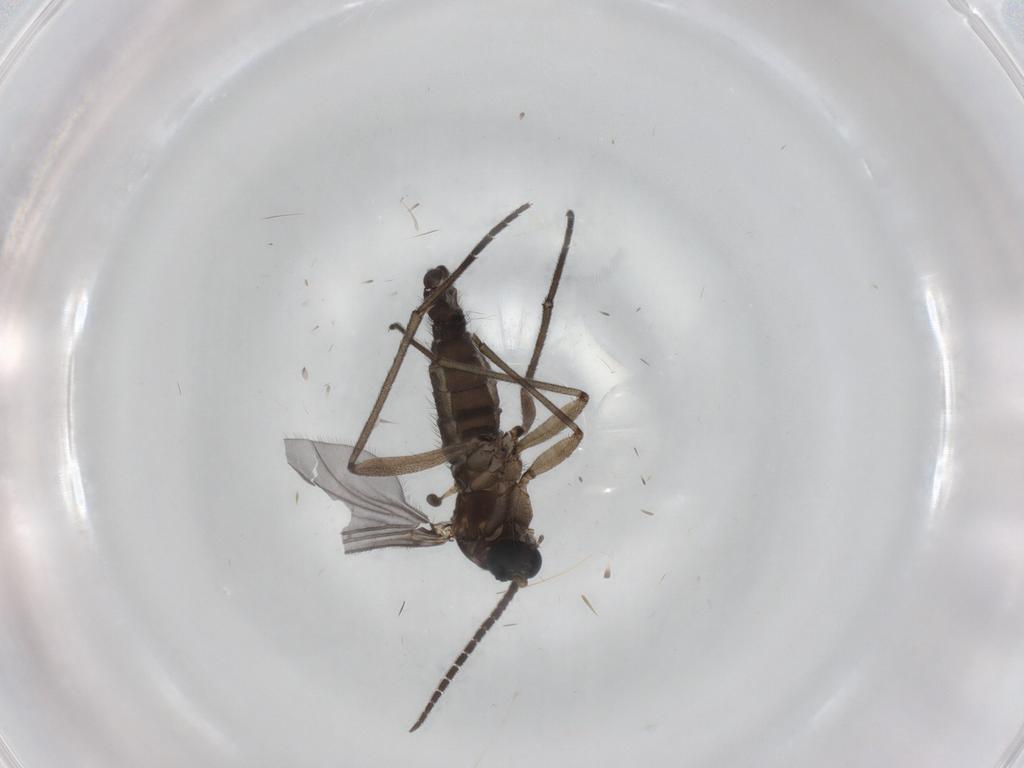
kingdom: Animalia
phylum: Arthropoda
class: Insecta
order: Diptera
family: Sciaridae
